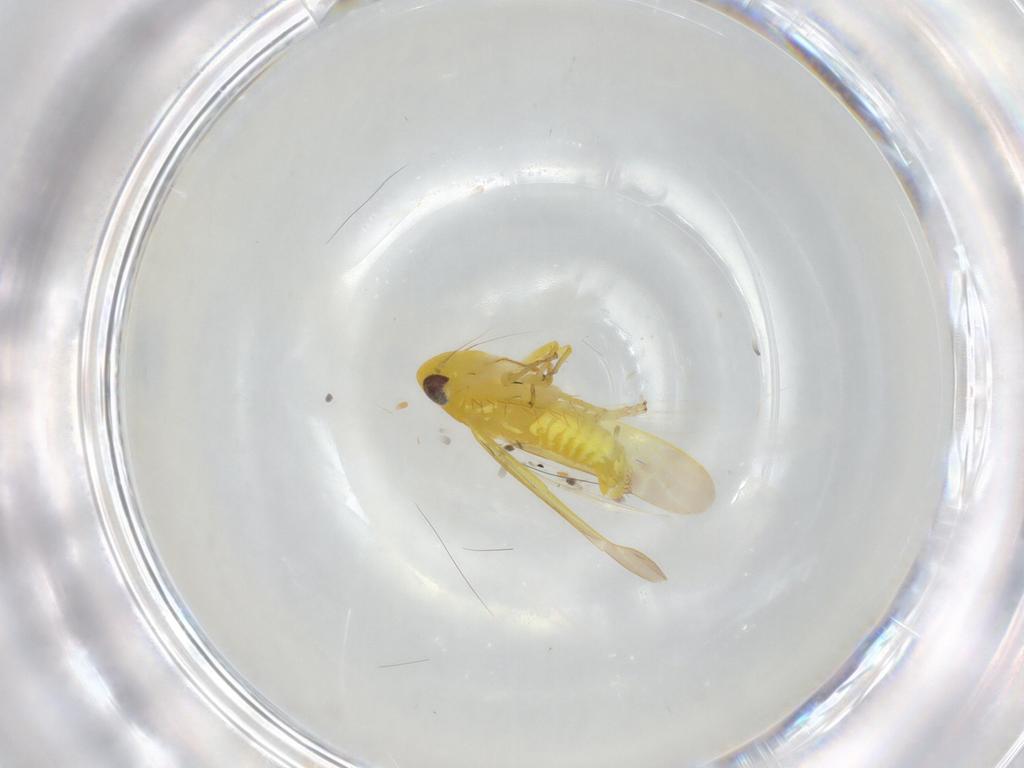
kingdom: Animalia
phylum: Arthropoda
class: Insecta
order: Hemiptera
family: Cicadellidae
